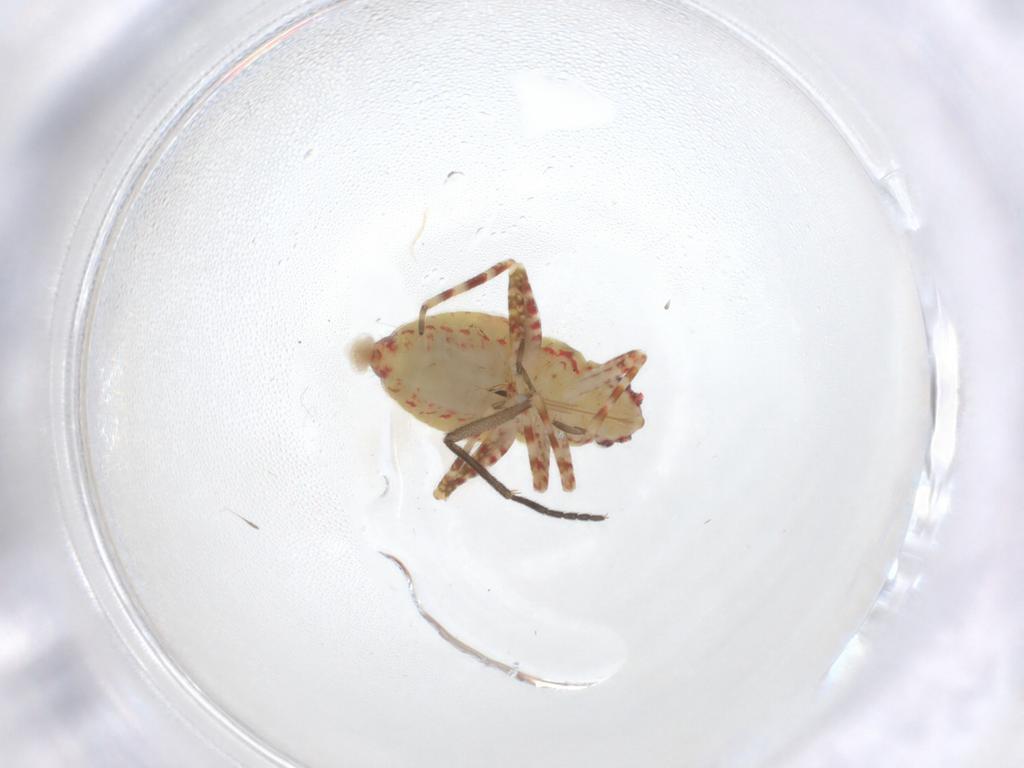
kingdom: Animalia
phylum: Arthropoda
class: Insecta
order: Hemiptera
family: Miridae
